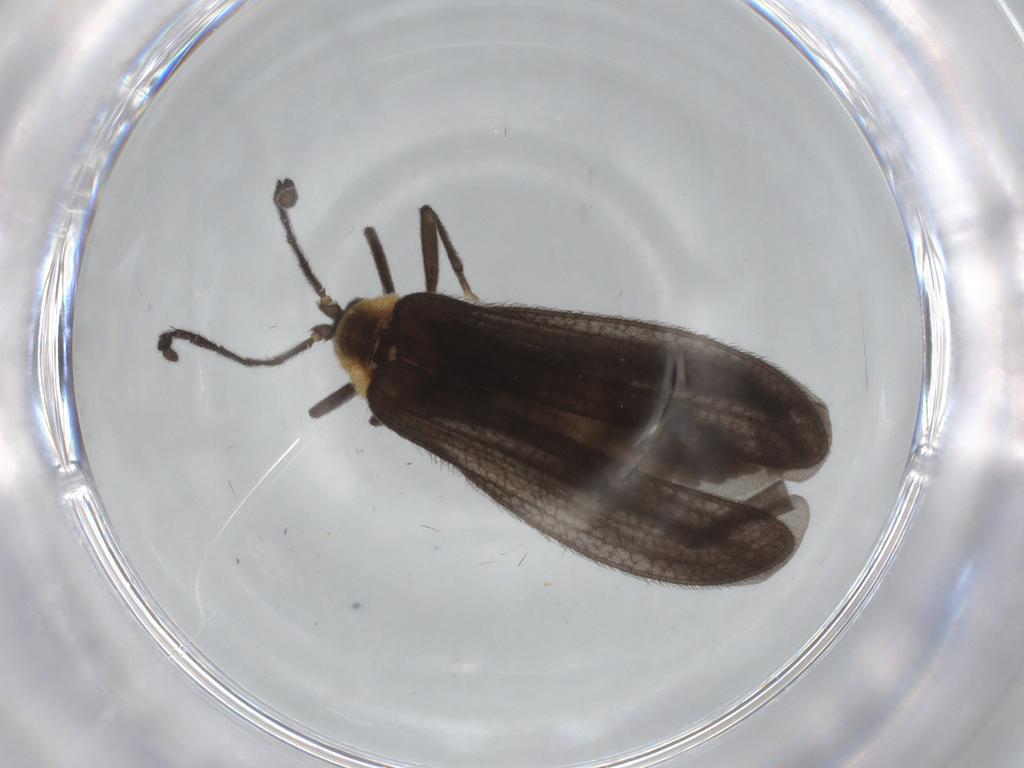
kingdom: Animalia
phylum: Arthropoda
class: Insecta
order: Coleoptera
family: Lycidae
